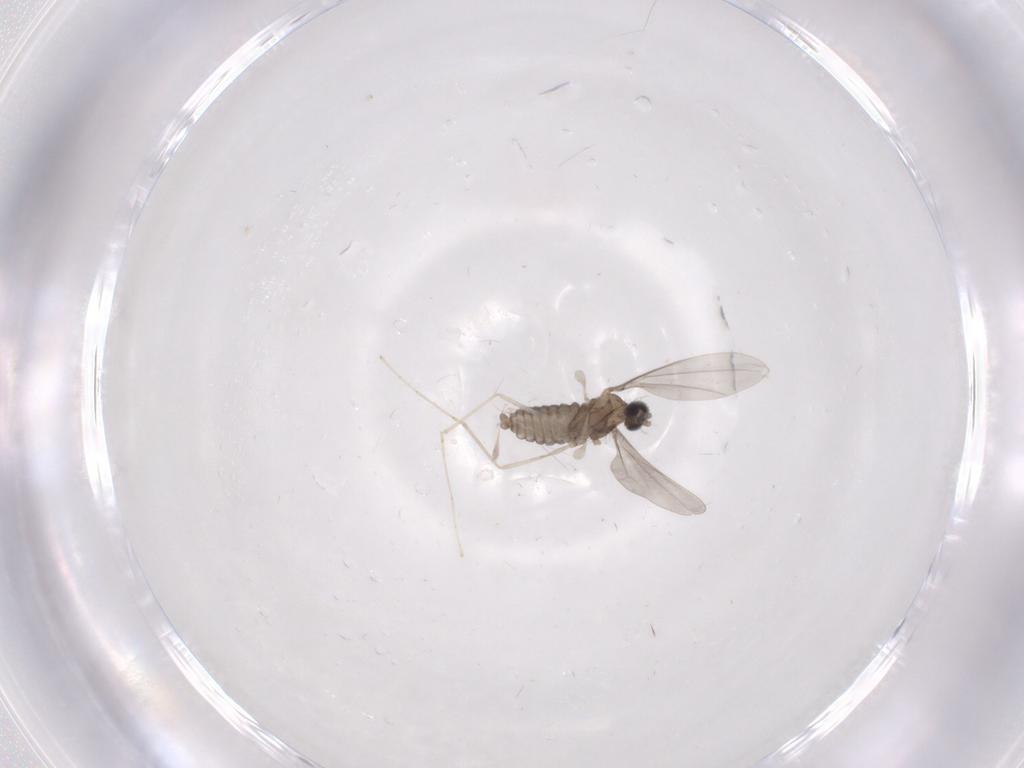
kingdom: Animalia
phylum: Arthropoda
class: Insecta
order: Diptera
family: Cecidomyiidae
